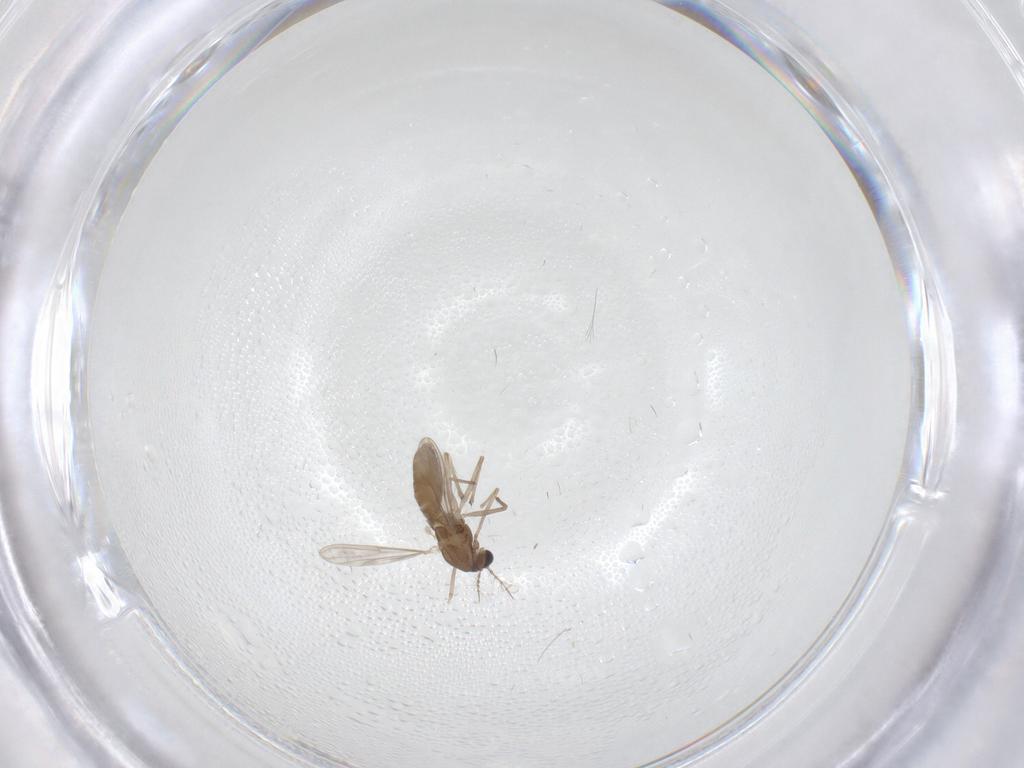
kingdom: Animalia
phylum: Arthropoda
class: Insecta
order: Diptera
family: Chironomidae
